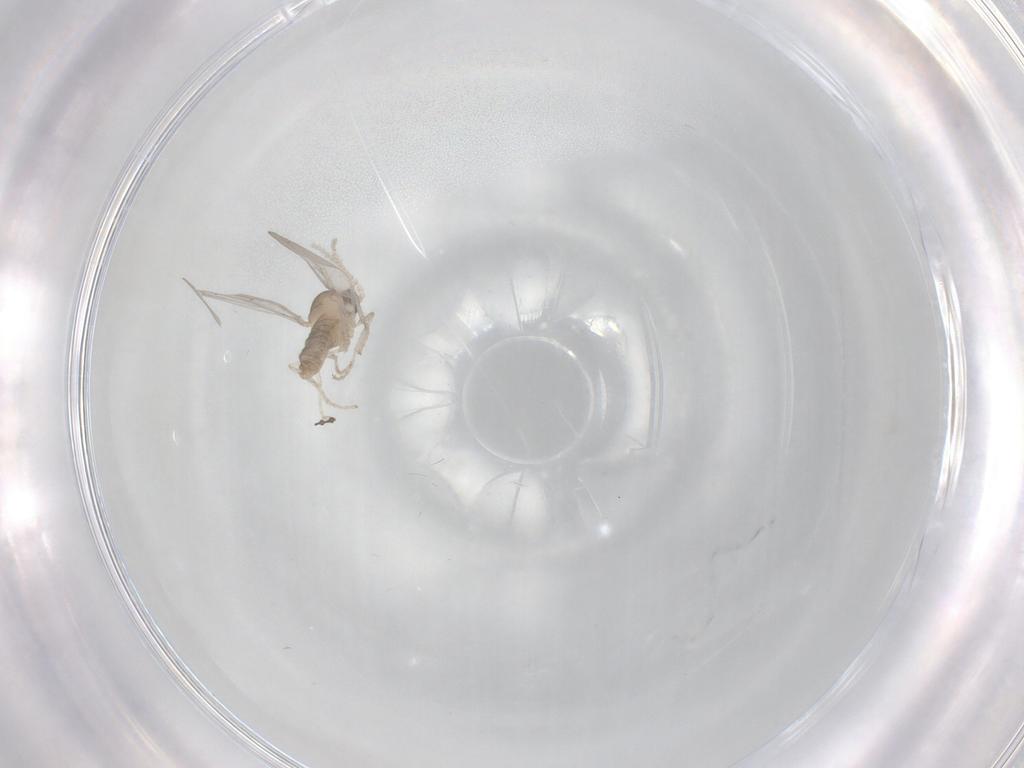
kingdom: Animalia
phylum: Arthropoda
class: Insecta
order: Diptera
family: Cecidomyiidae
